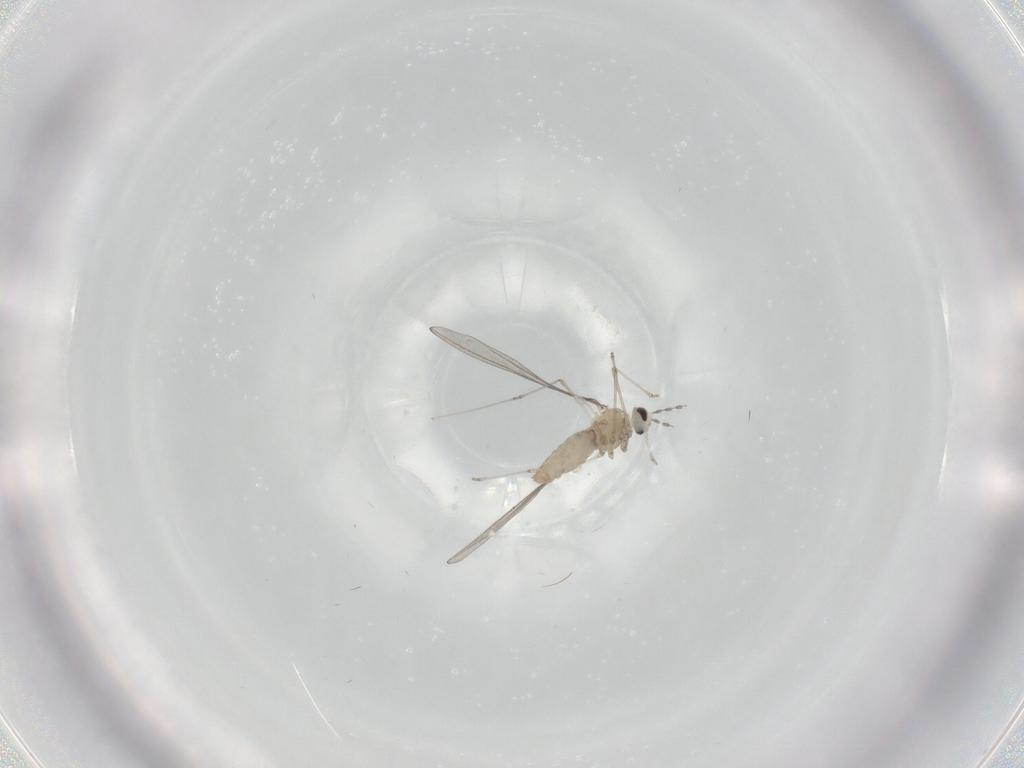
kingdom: Animalia
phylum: Arthropoda
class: Insecta
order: Diptera
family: Cecidomyiidae
